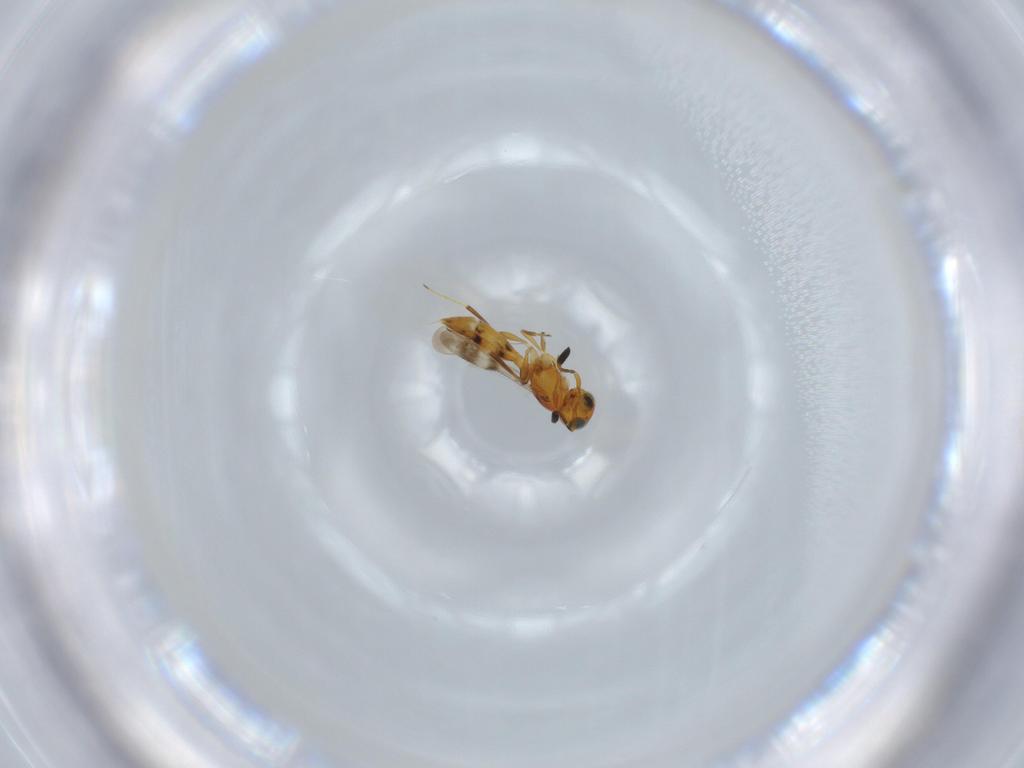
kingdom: Animalia
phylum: Arthropoda
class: Insecta
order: Hymenoptera
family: Scelionidae
